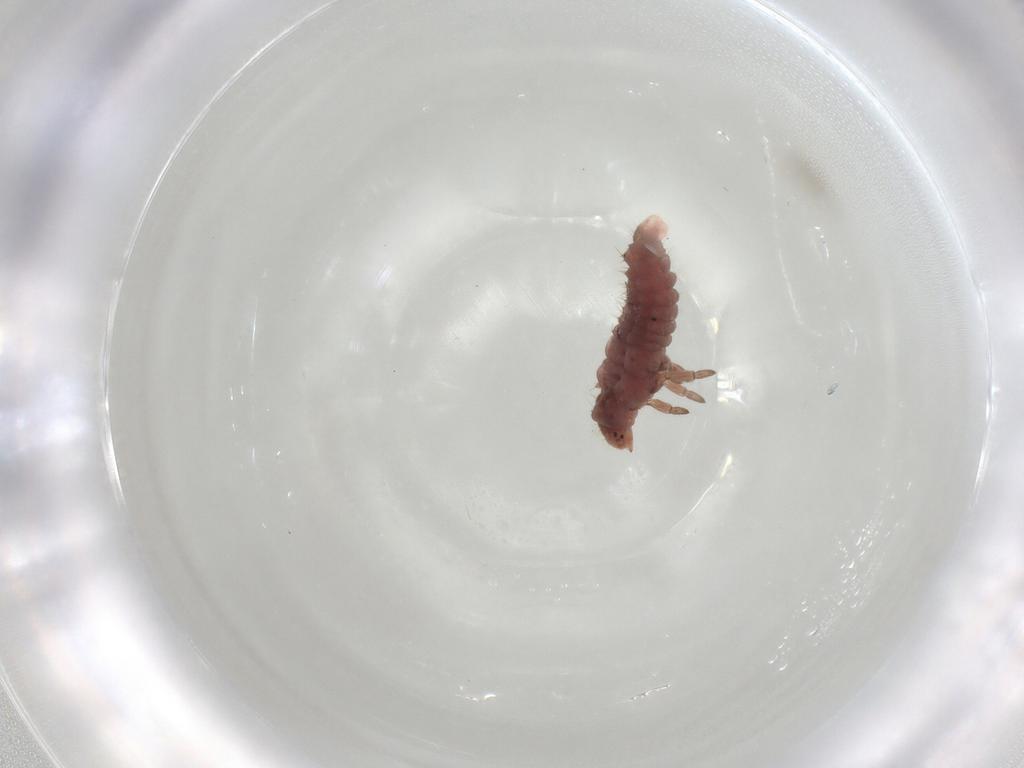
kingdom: Animalia
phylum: Arthropoda
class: Insecta
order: Coleoptera
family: Coccinellidae
